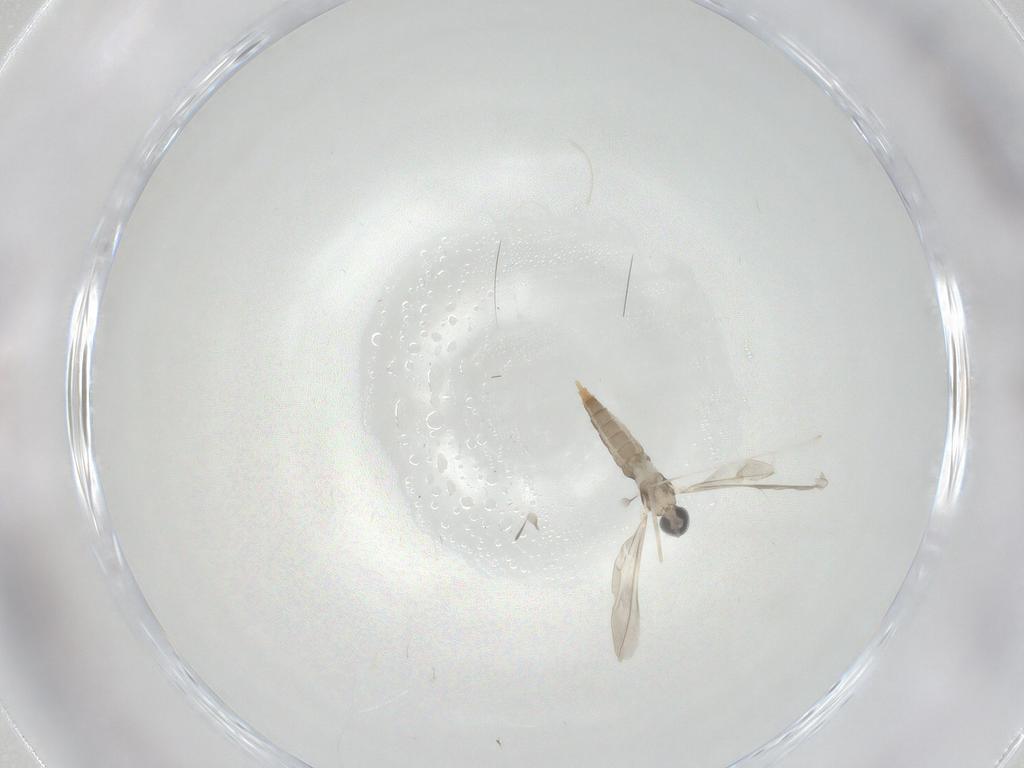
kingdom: Animalia
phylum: Arthropoda
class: Insecta
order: Diptera
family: Cecidomyiidae
